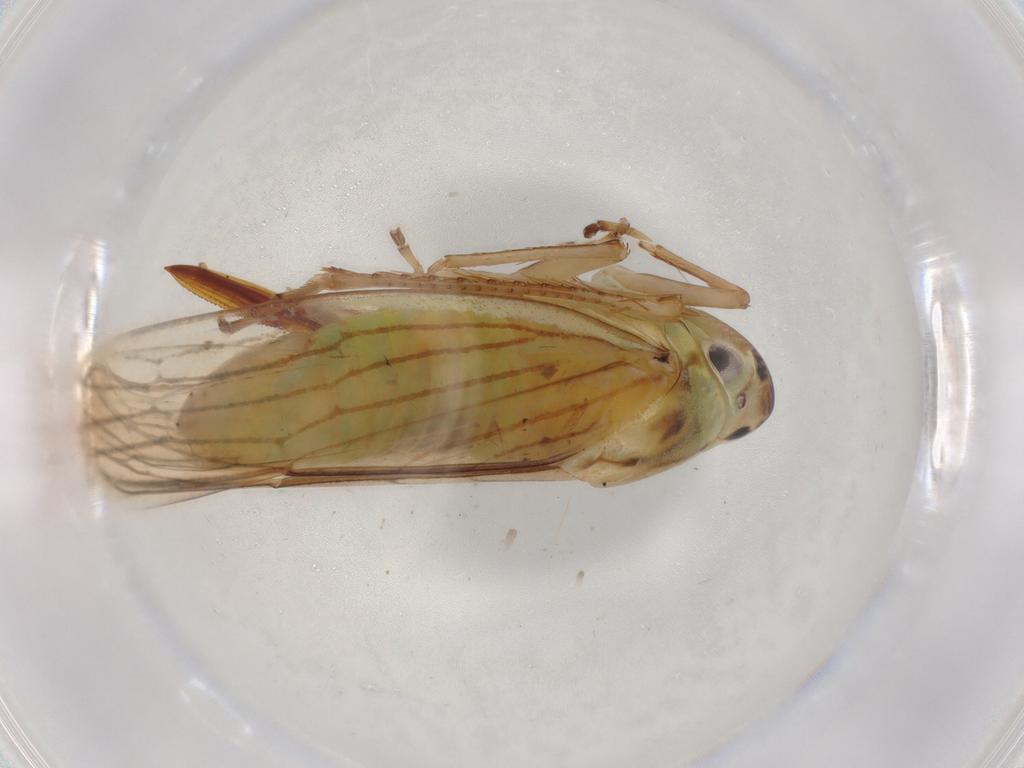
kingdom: Animalia
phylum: Arthropoda
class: Insecta
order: Hemiptera
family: Cicadellidae
